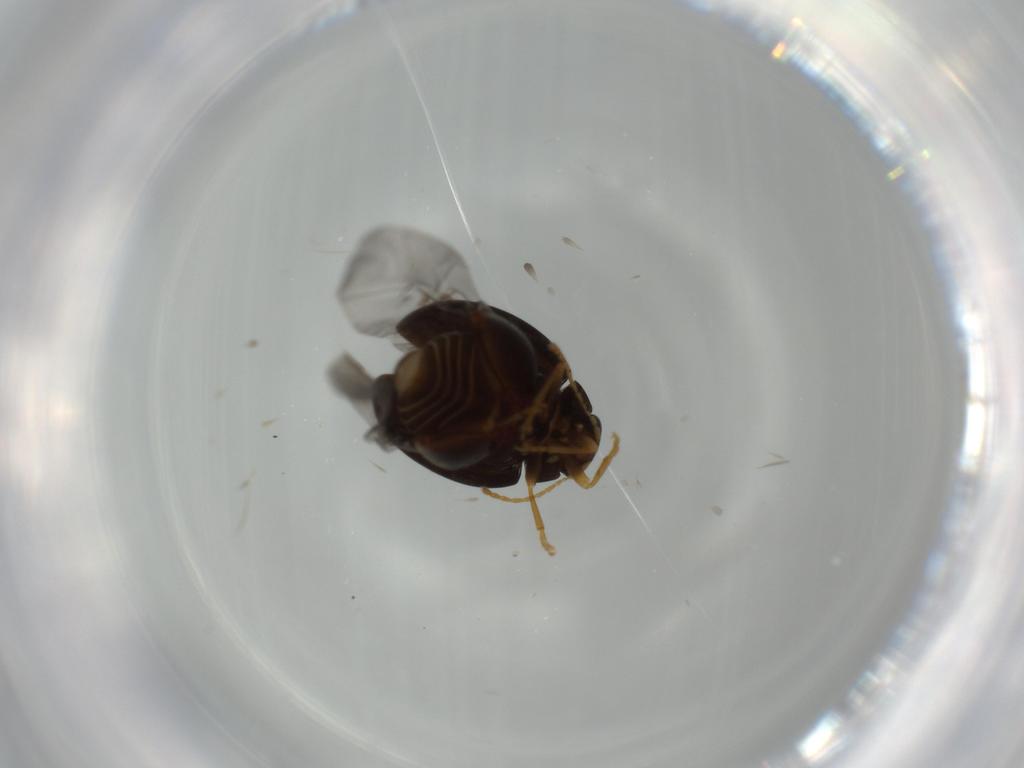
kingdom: Animalia
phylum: Arthropoda
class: Insecta
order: Coleoptera
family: Chrysomelidae
